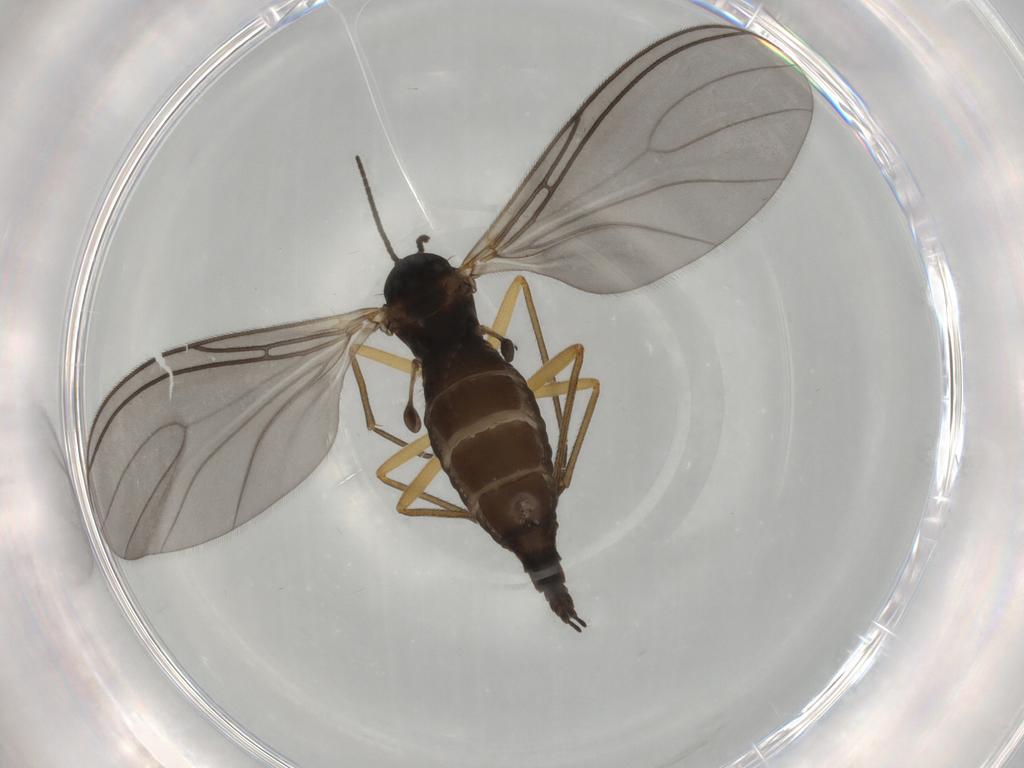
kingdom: Animalia
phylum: Arthropoda
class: Insecta
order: Diptera
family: Sciaridae
